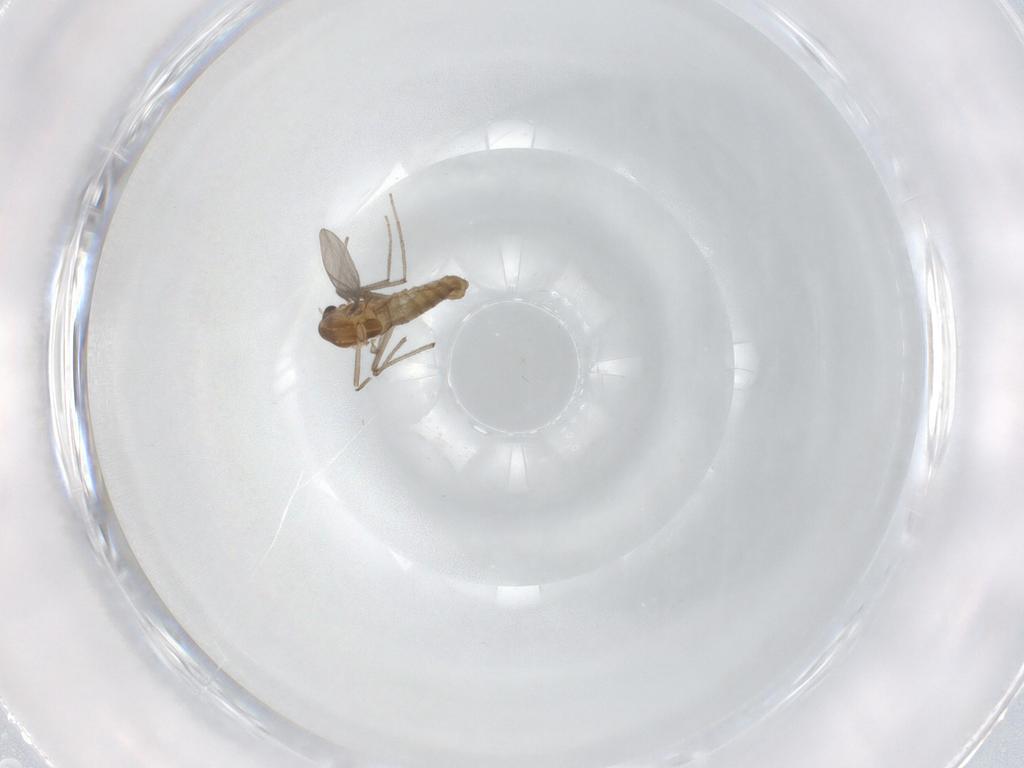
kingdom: Animalia
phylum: Arthropoda
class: Insecta
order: Diptera
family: Chironomidae
